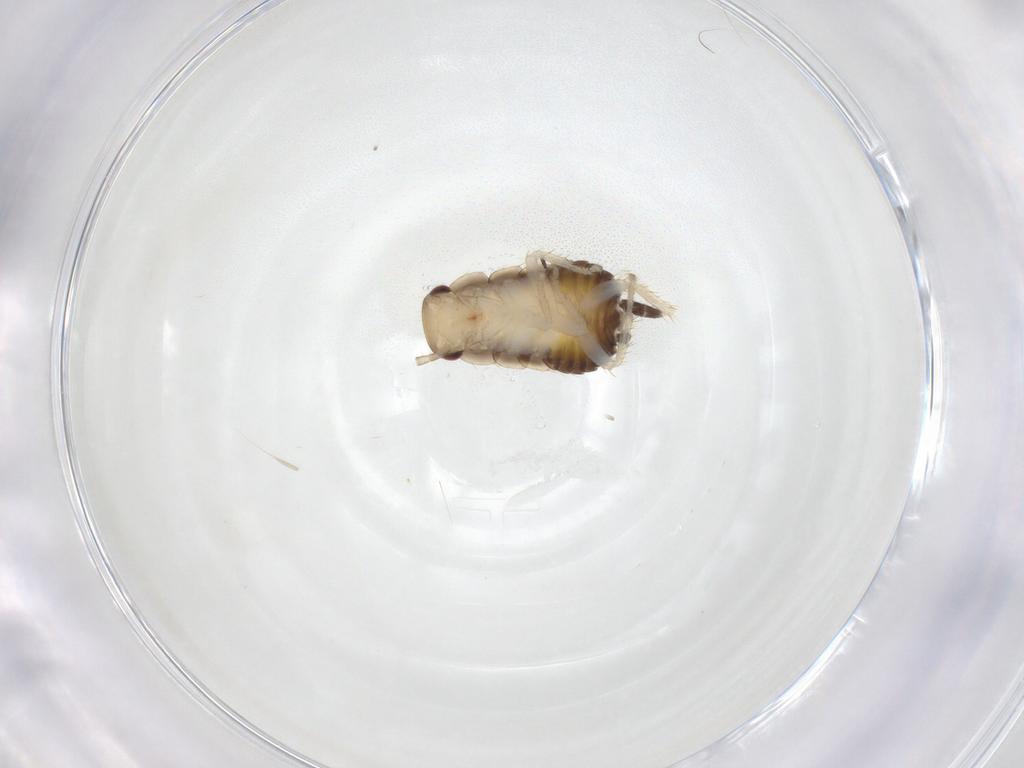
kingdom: Animalia
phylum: Arthropoda
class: Insecta
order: Blattodea
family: Ectobiidae
